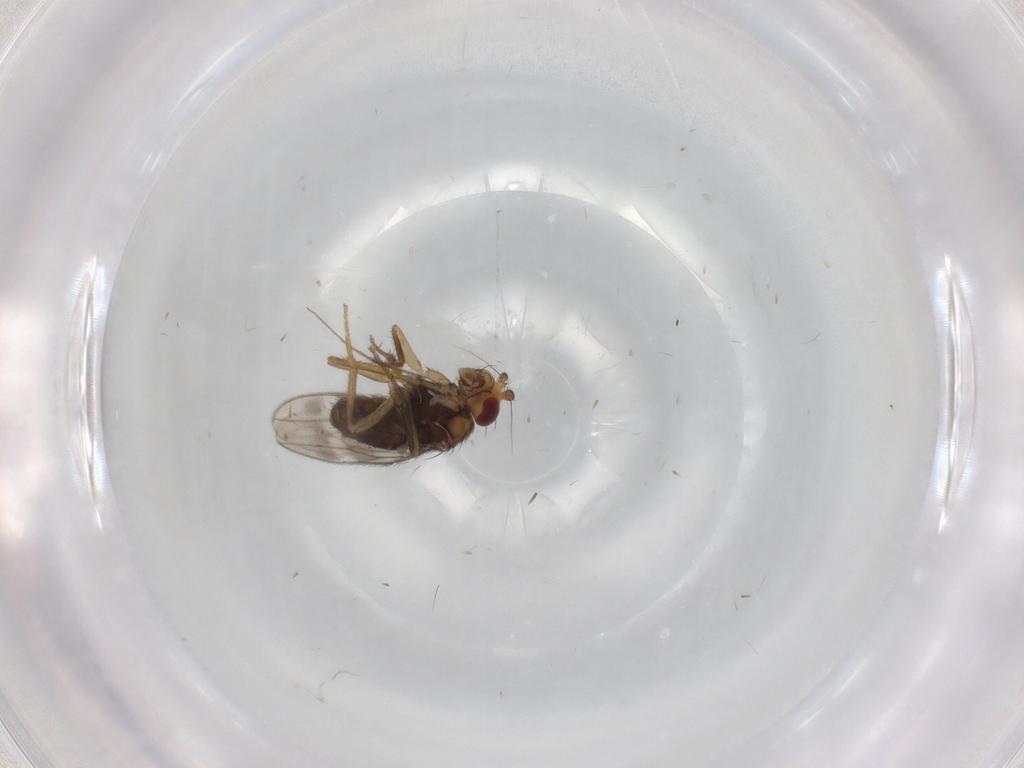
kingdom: Animalia
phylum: Arthropoda
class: Insecta
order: Diptera
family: Sphaeroceridae
